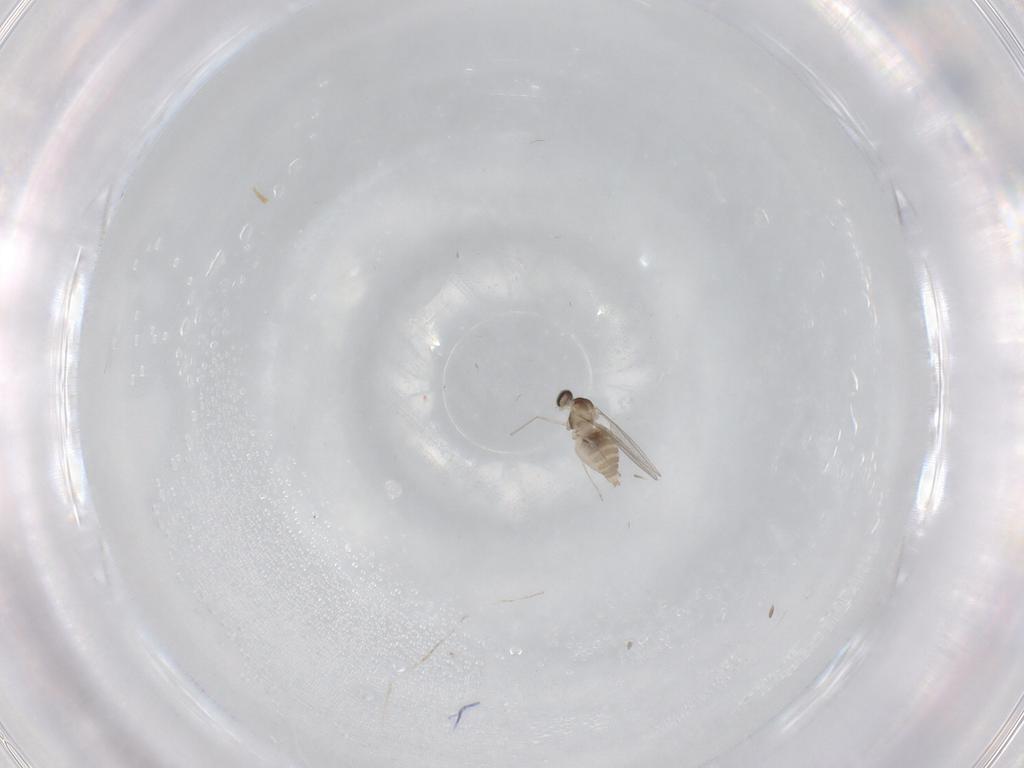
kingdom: Animalia
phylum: Arthropoda
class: Insecta
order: Diptera
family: Cecidomyiidae
